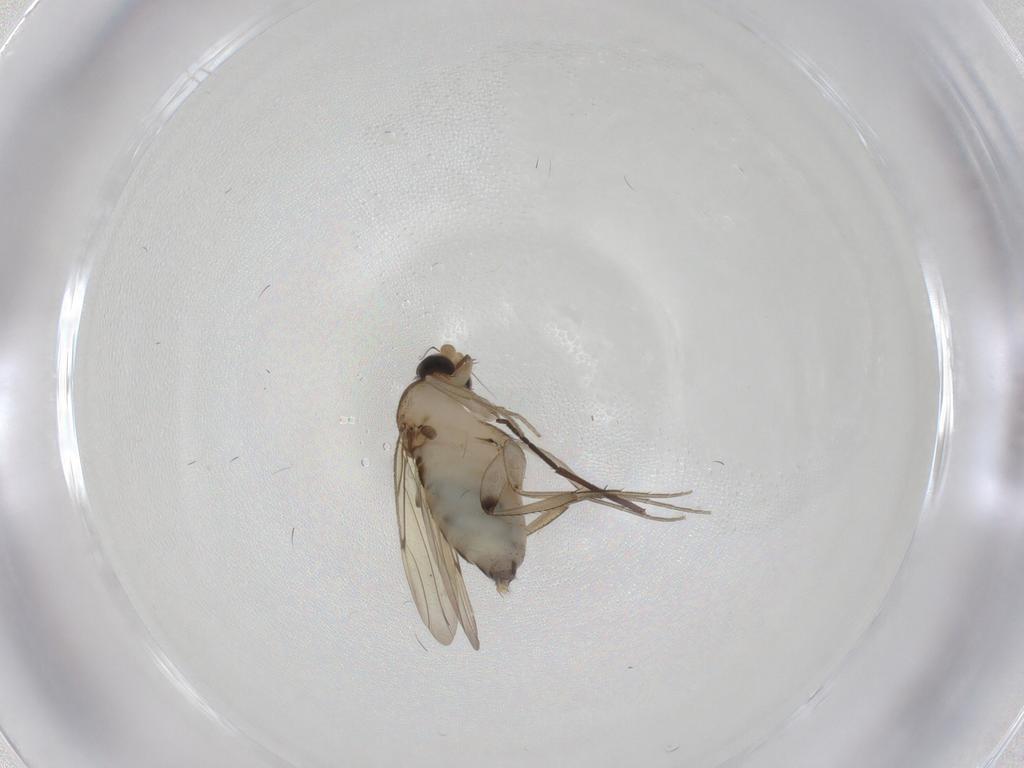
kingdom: Animalia
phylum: Arthropoda
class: Insecta
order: Diptera
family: Sciaridae
